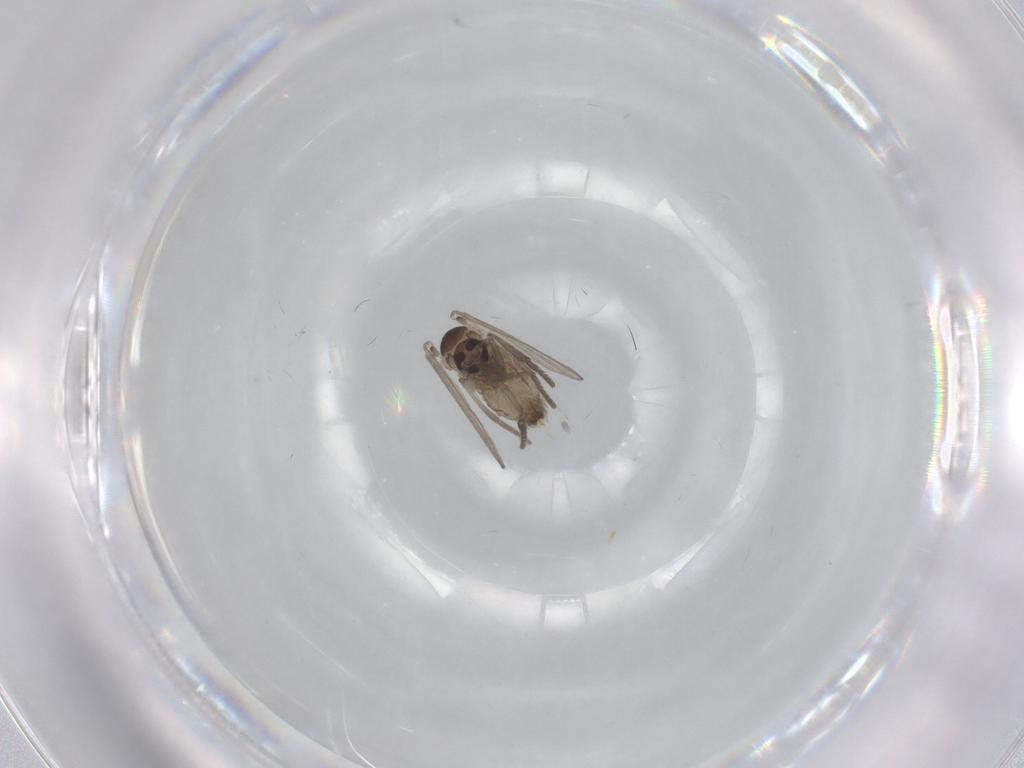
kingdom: Animalia
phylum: Arthropoda
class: Insecta
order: Diptera
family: Psychodidae
